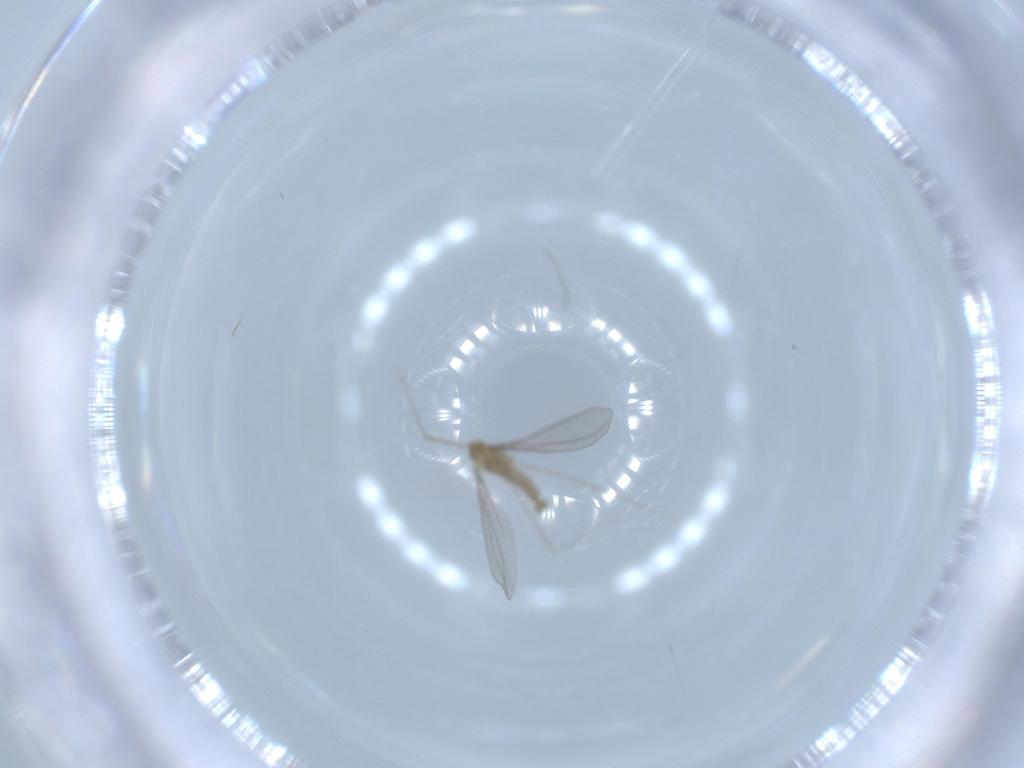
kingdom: Animalia
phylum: Arthropoda
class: Insecta
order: Diptera
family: Cecidomyiidae
